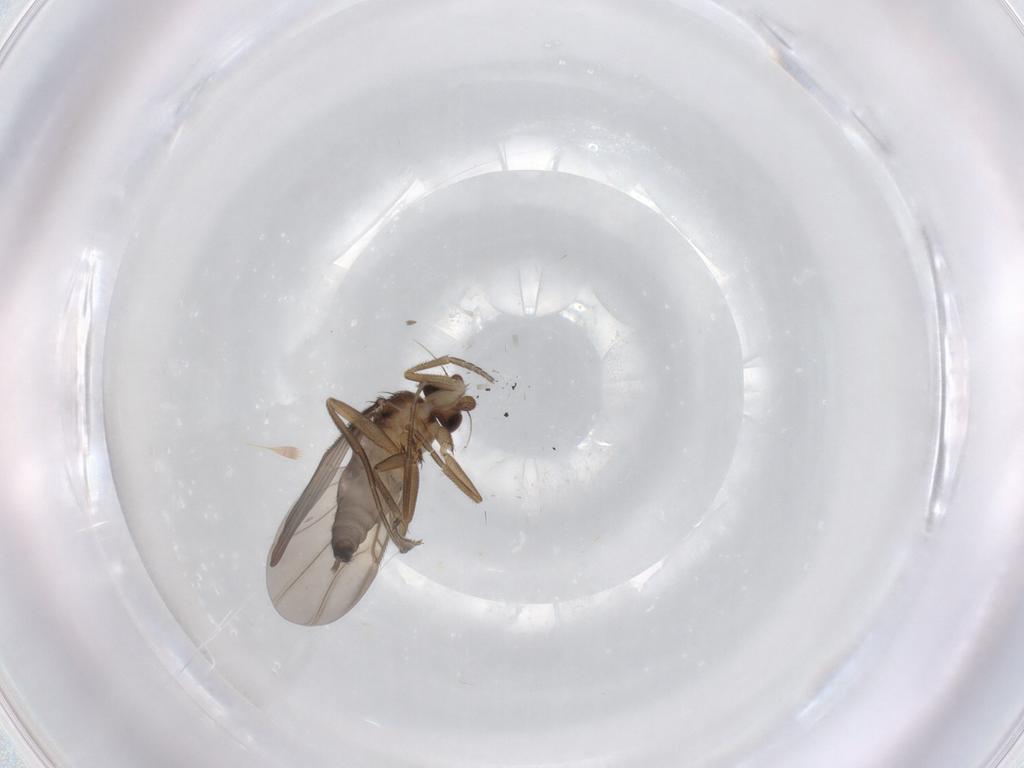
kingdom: Animalia
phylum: Arthropoda
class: Insecta
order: Diptera
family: Phoridae
